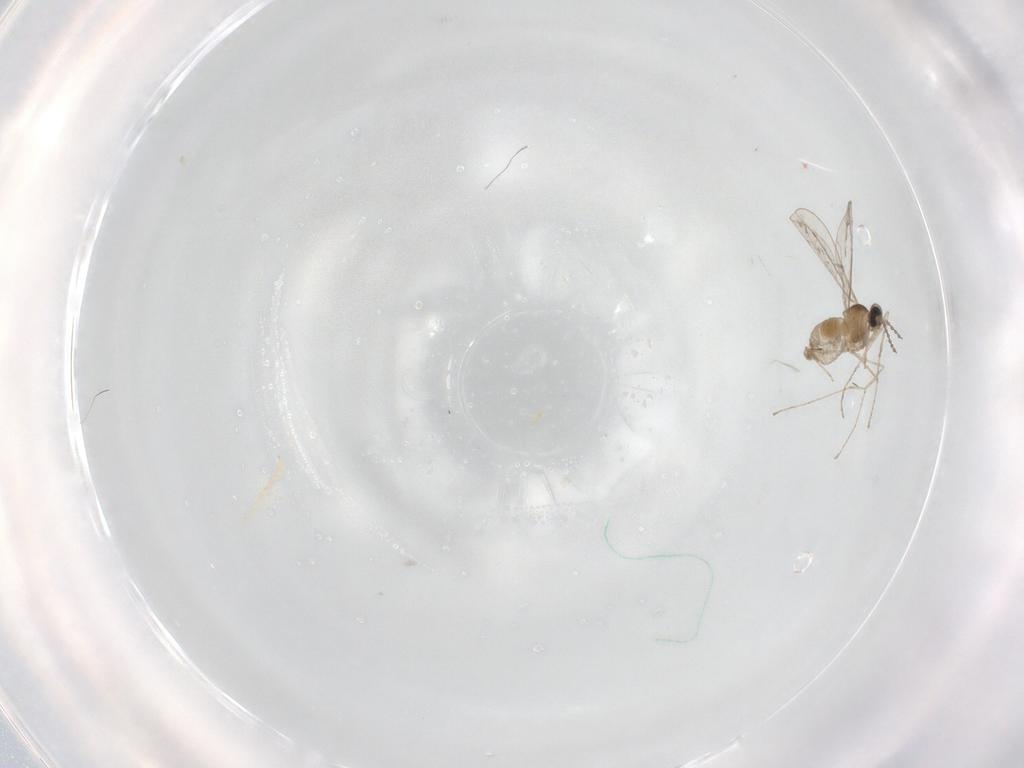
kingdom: Animalia
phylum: Arthropoda
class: Insecta
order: Diptera
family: Cecidomyiidae
